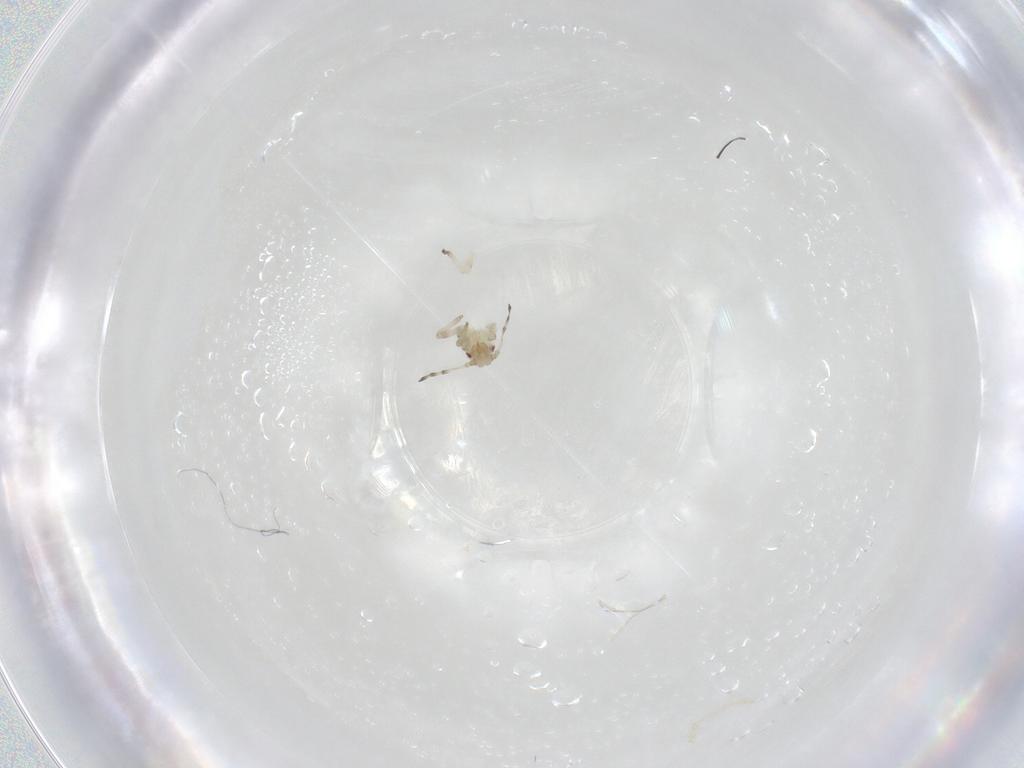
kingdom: Animalia
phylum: Arthropoda
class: Insecta
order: Hemiptera
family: Aphididae
